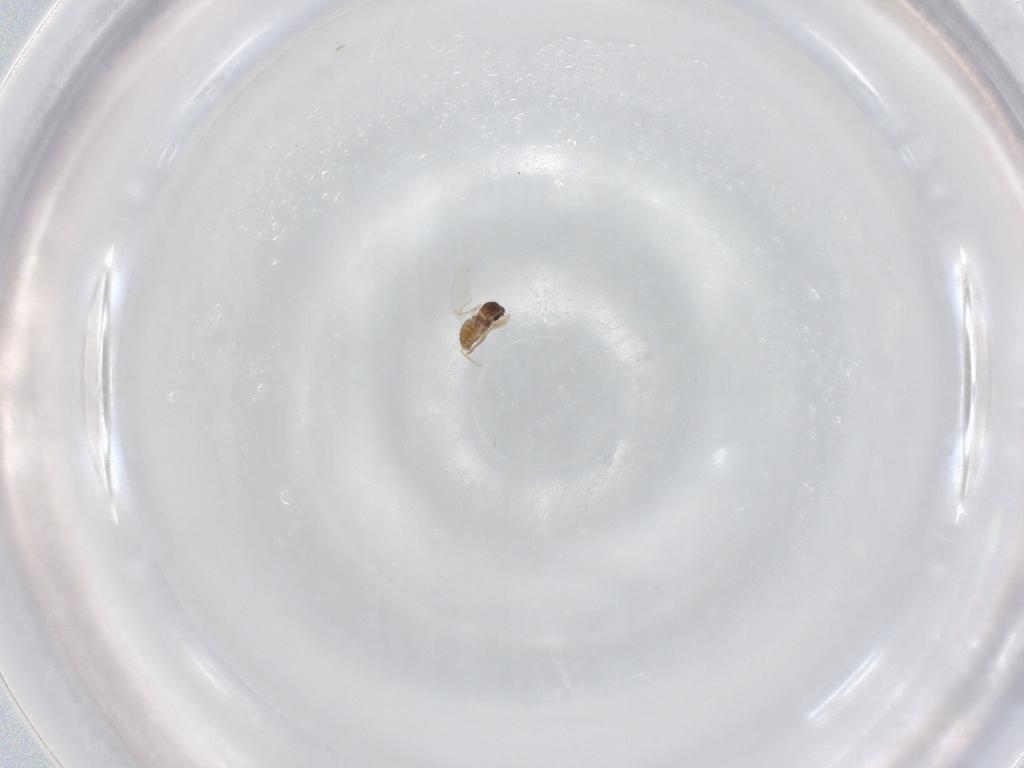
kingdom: Animalia
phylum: Arthropoda
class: Insecta
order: Diptera
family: Cecidomyiidae
